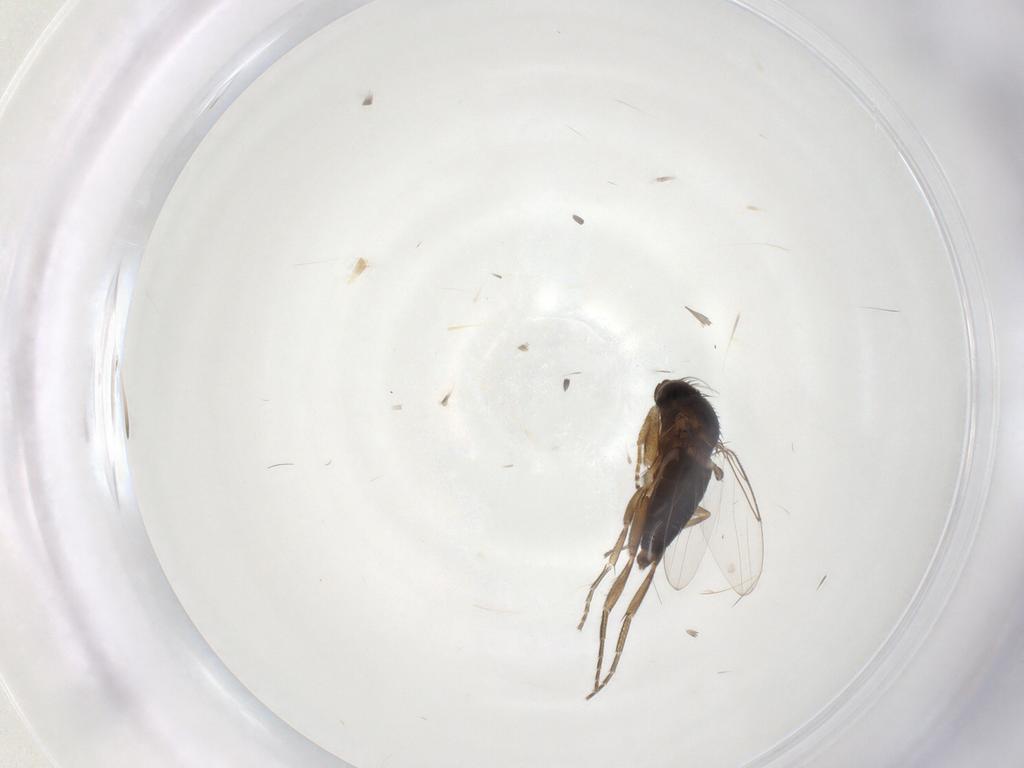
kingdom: Animalia
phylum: Arthropoda
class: Insecta
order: Diptera
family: Phoridae
